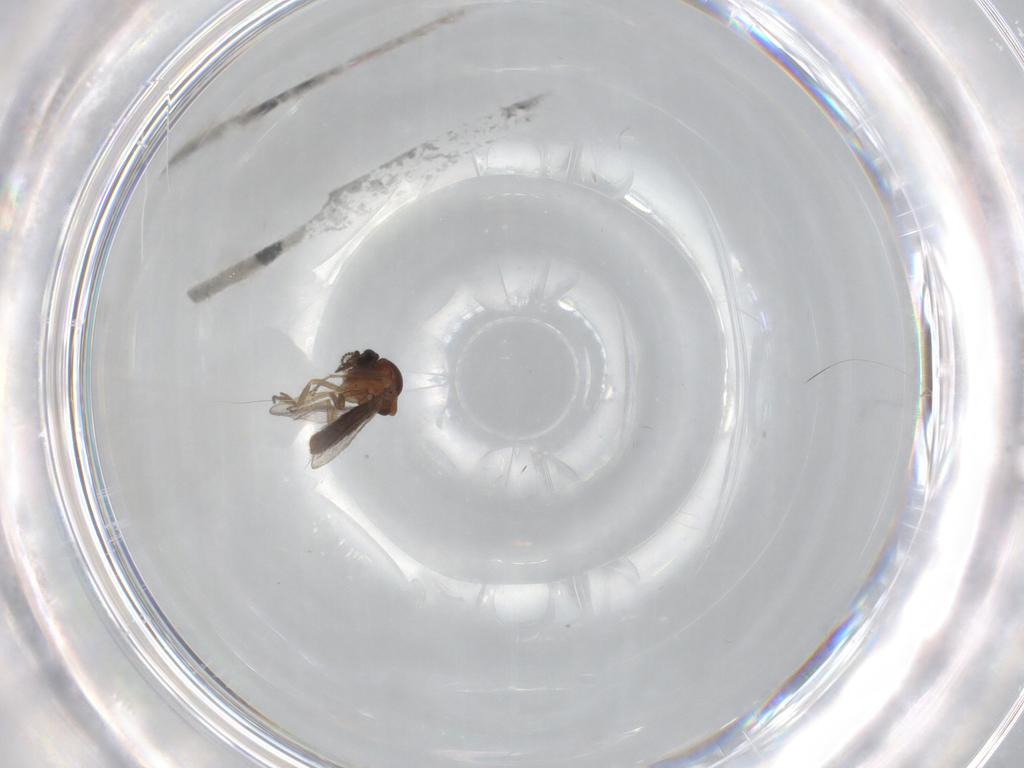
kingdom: Animalia
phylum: Arthropoda
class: Insecta
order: Diptera
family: Ceratopogonidae
